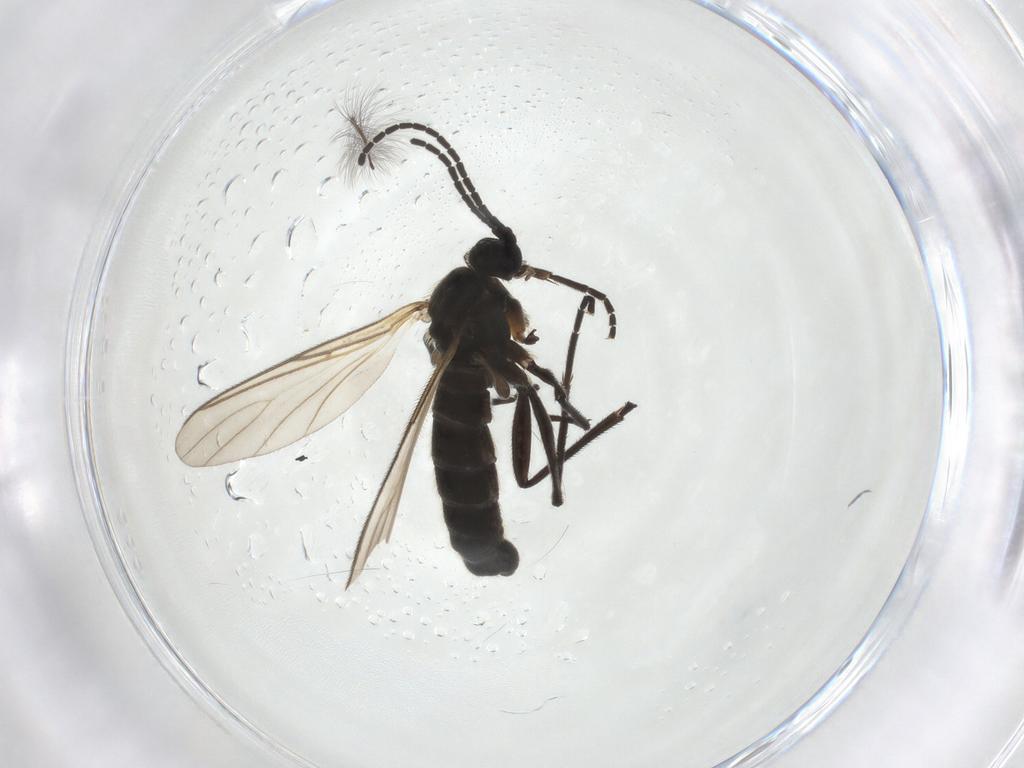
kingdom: Animalia
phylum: Arthropoda
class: Insecta
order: Diptera
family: Sciaridae
